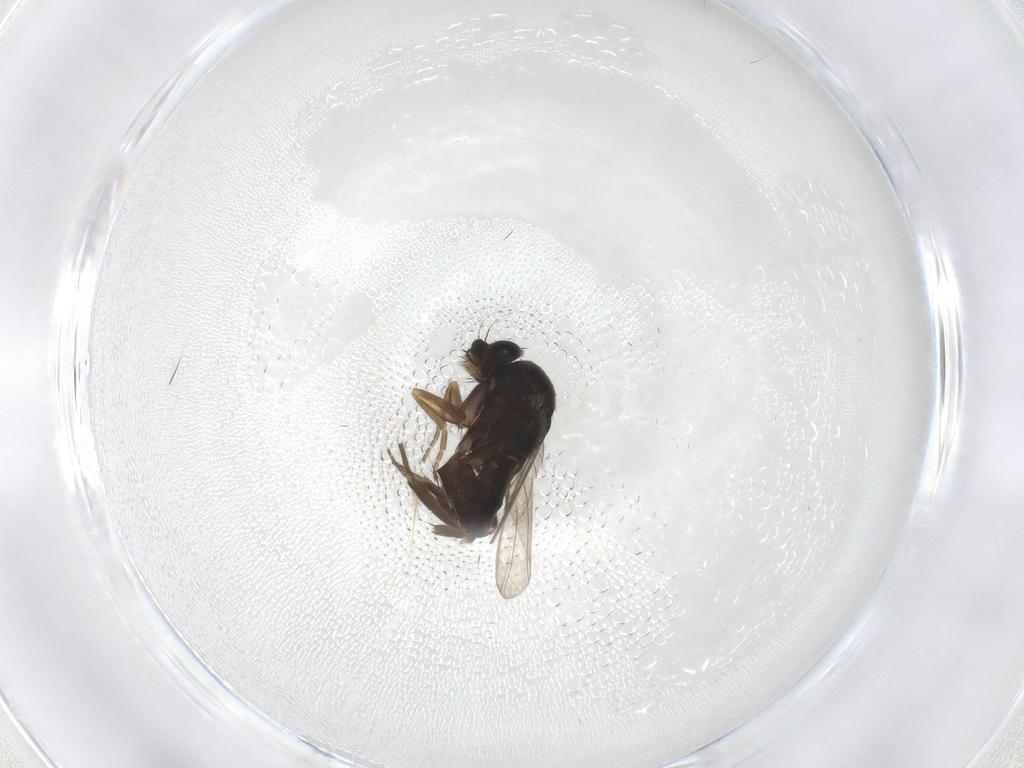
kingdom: Animalia
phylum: Arthropoda
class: Insecta
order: Diptera
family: Phoridae
